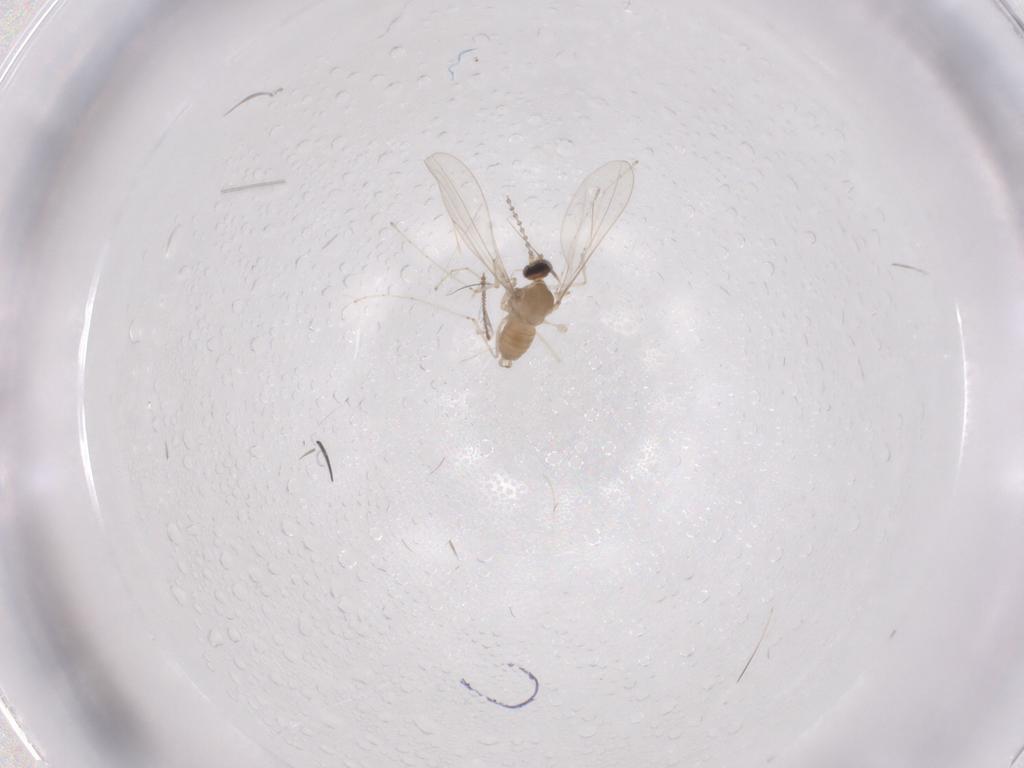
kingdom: Animalia
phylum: Arthropoda
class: Insecta
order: Diptera
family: Cecidomyiidae
